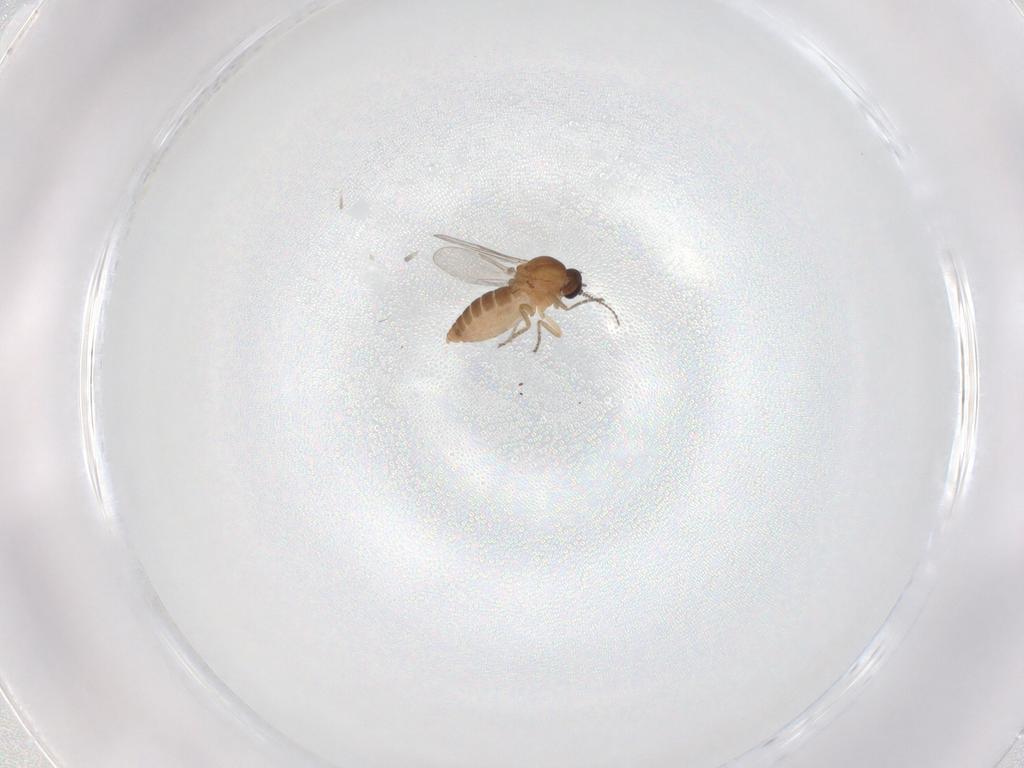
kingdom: Animalia
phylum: Arthropoda
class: Insecta
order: Diptera
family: Ceratopogonidae
